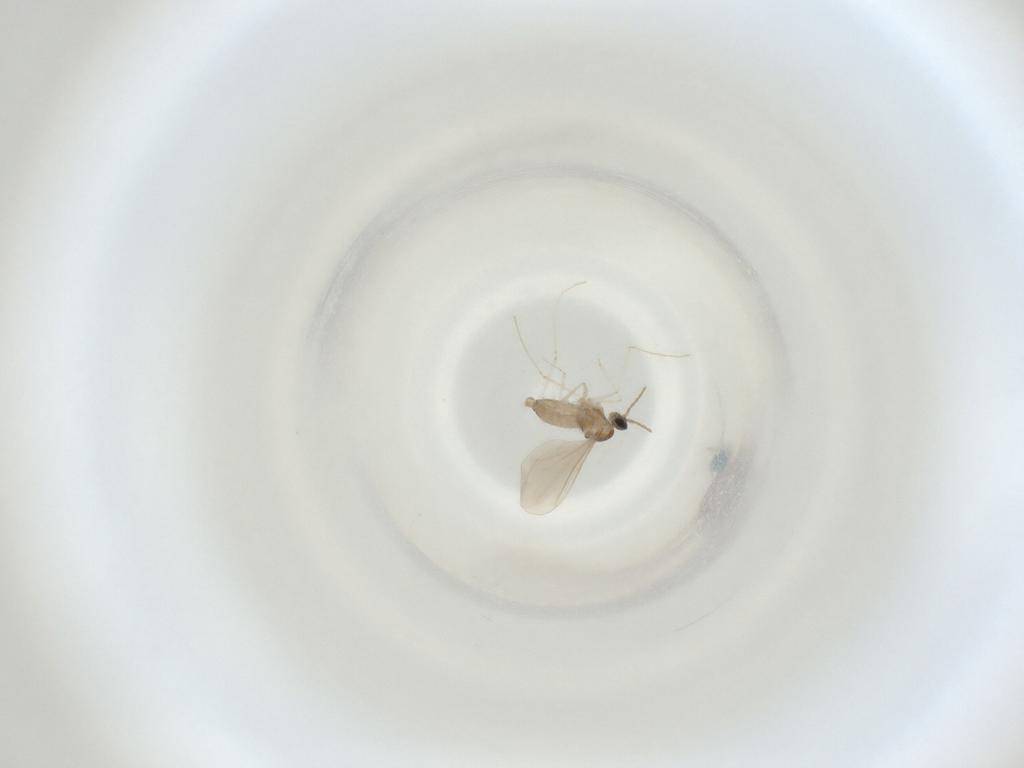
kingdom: Animalia
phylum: Arthropoda
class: Insecta
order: Diptera
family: Cecidomyiidae
